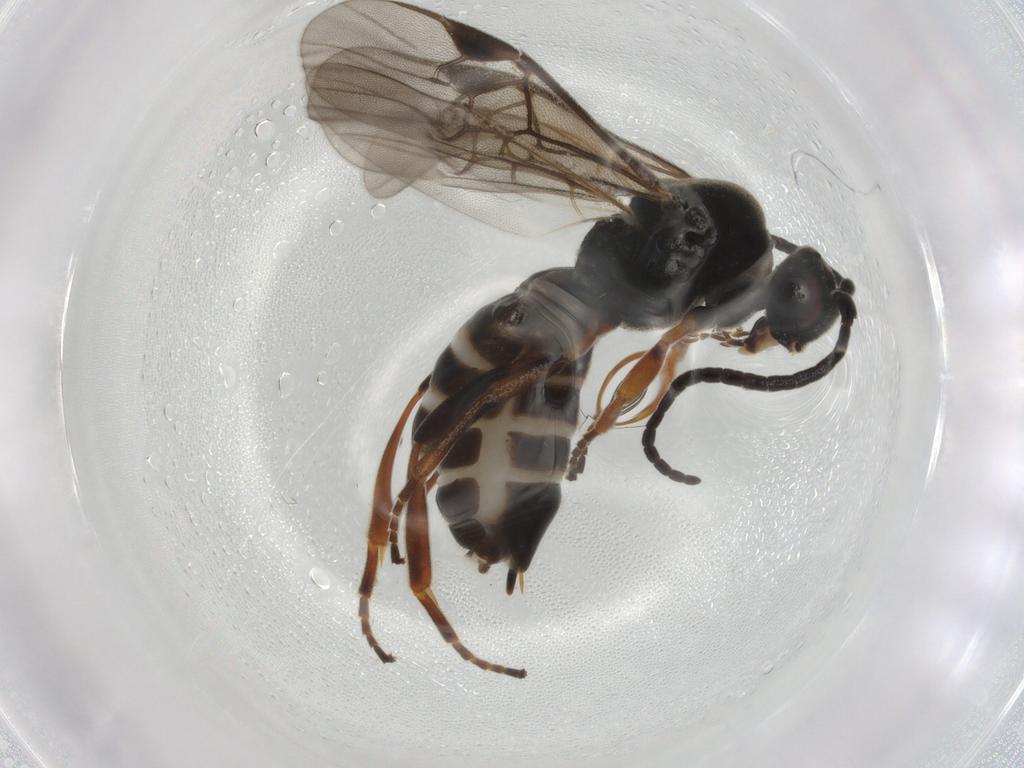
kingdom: Animalia
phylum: Arthropoda
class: Insecta
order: Hymenoptera
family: Braconidae
